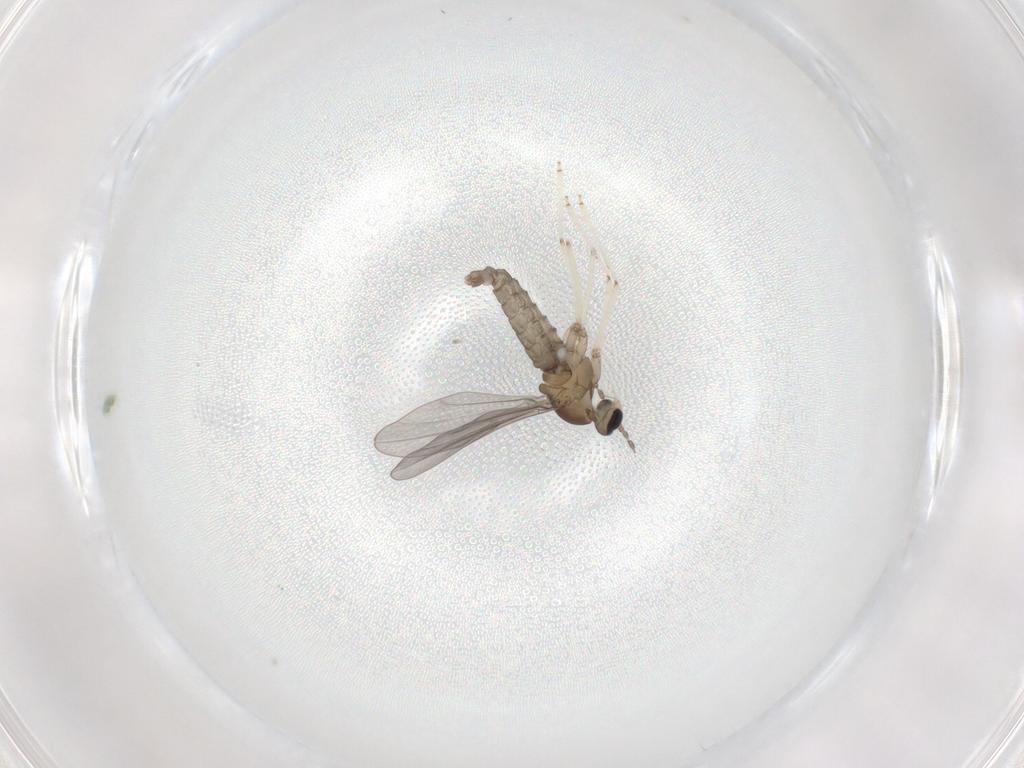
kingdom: Animalia
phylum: Arthropoda
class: Insecta
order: Diptera
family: Cecidomyiidae
